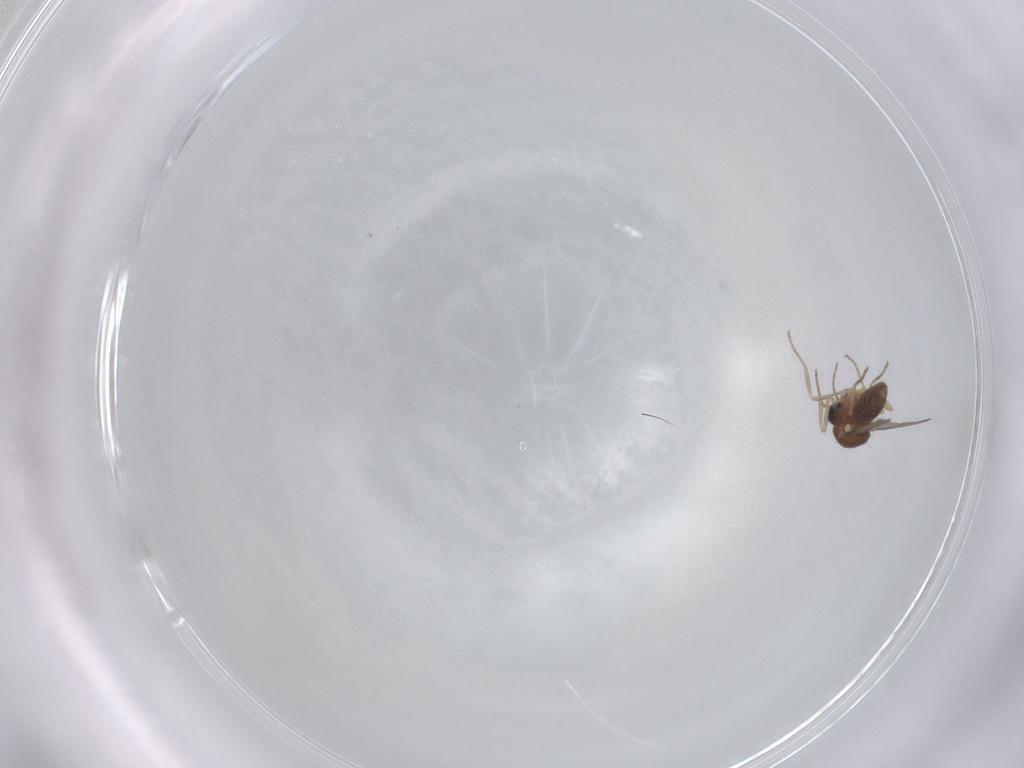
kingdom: Animalia
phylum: Arthropoda
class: Insecta
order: Diptera
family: Ceratopogonidae
